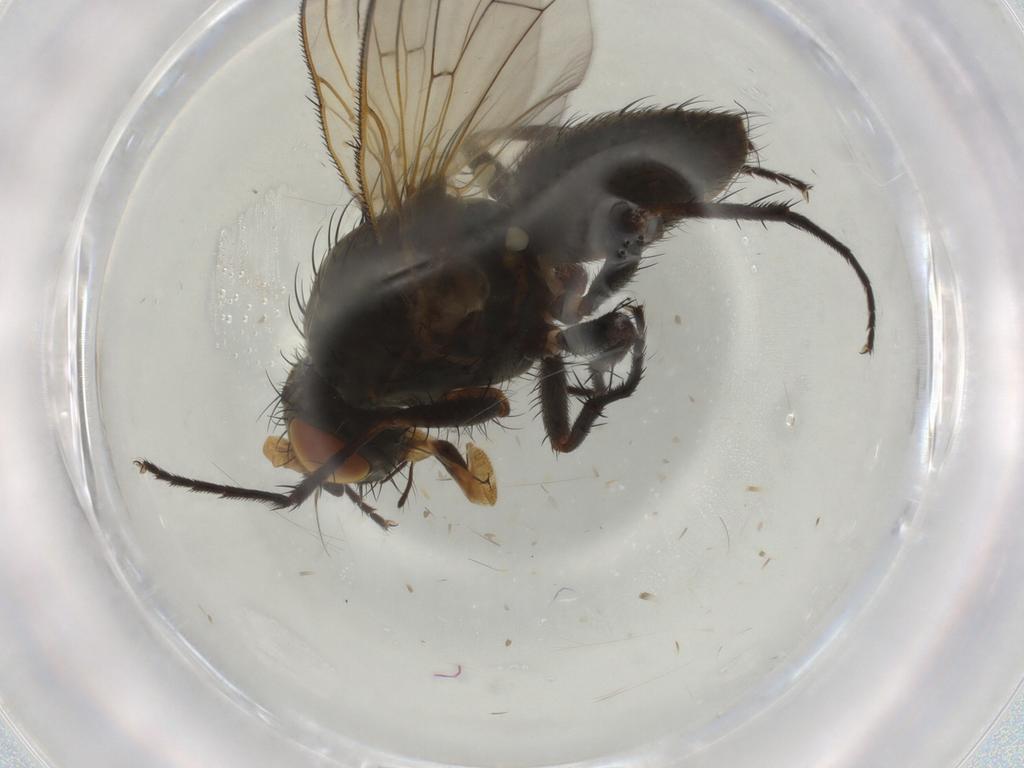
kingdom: Animalia
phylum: Arthropoda
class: Insecta
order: Diptera
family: Anthomyiidae
